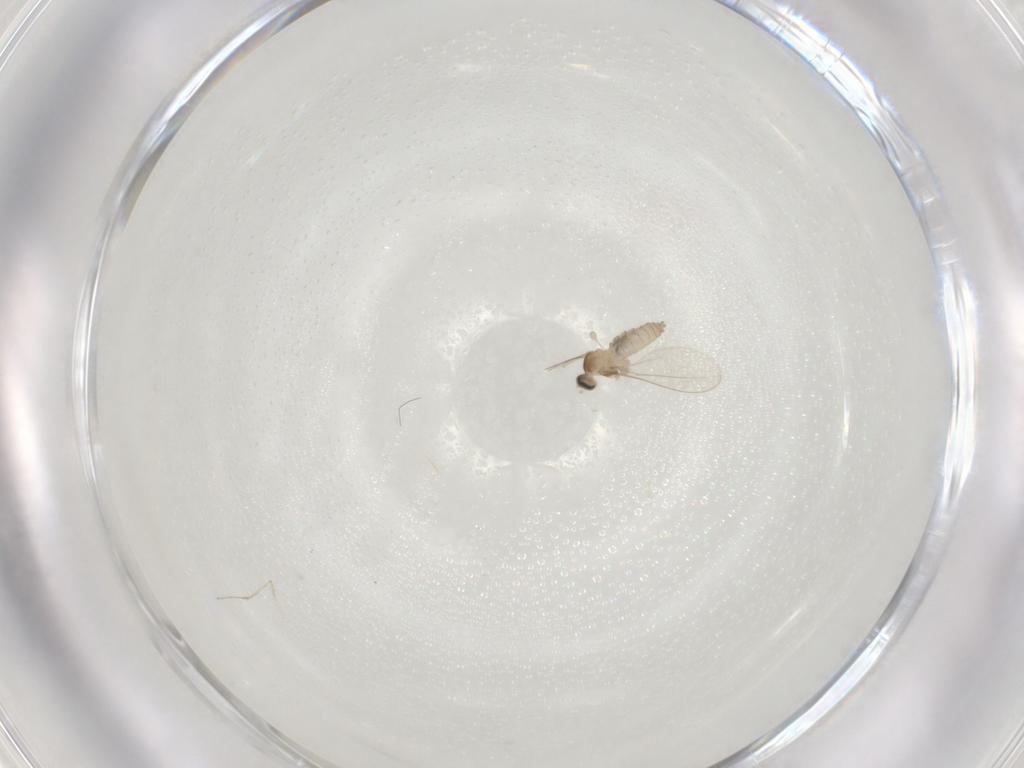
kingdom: Animalia
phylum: Arthropoda
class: Insecta
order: Diptera
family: Cecidomyiidae
